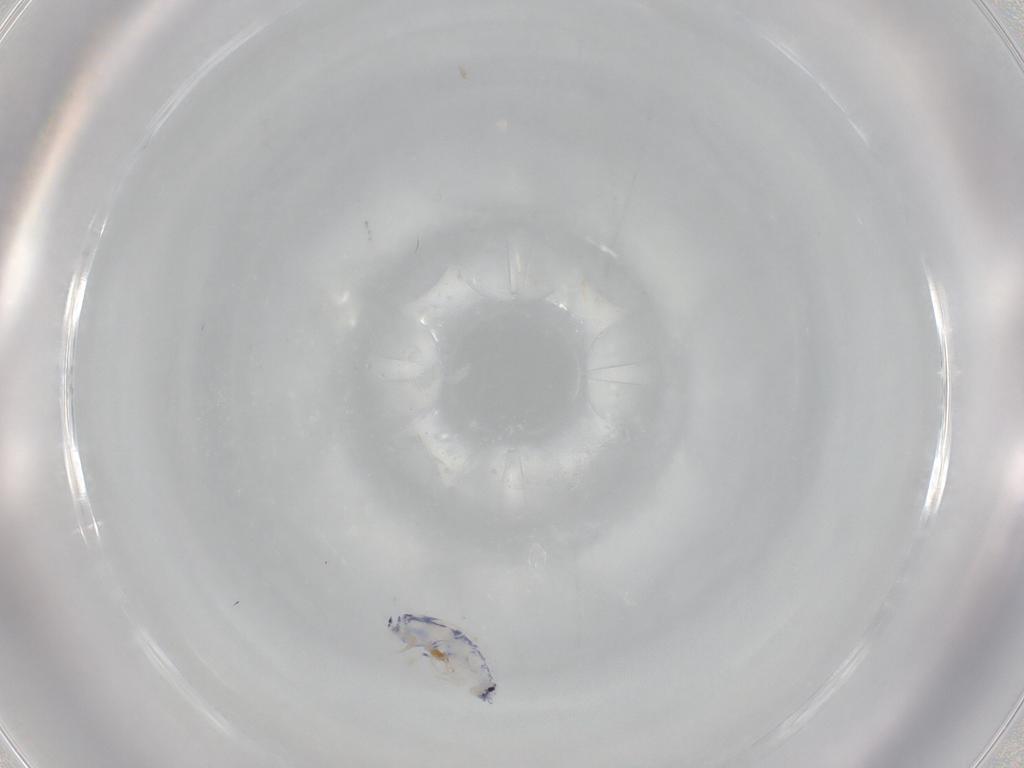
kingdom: Animalia
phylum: Arthropoda
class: Collembola
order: Entomobryomorpha
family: Entomobryidae
